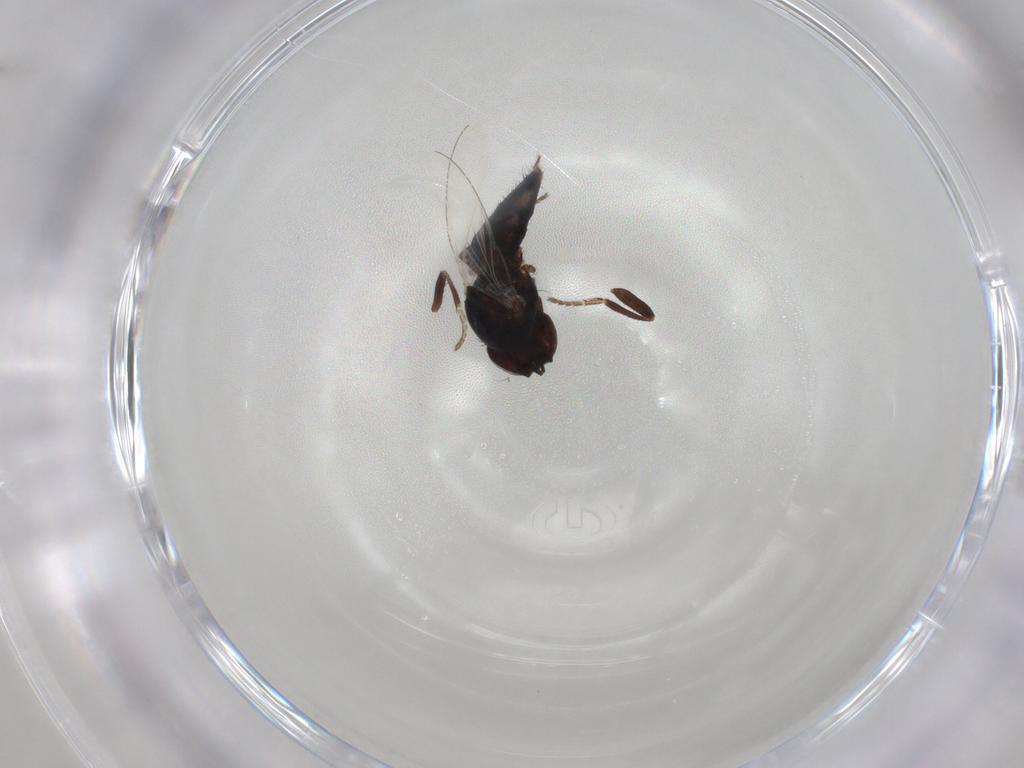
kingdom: Animalia
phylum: Arthropoda
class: Insecta
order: Diptera
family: Milichiidae
